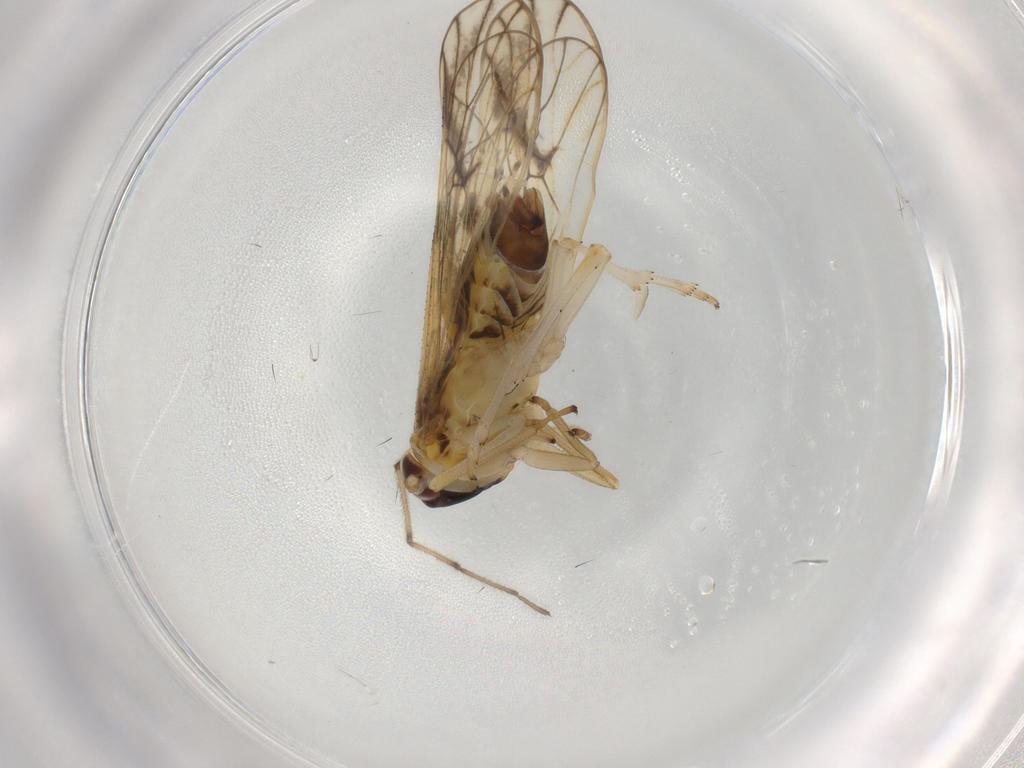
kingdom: Animalia
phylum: Arthropoda
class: Insecta
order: Hemiptera
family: Delphacidae
